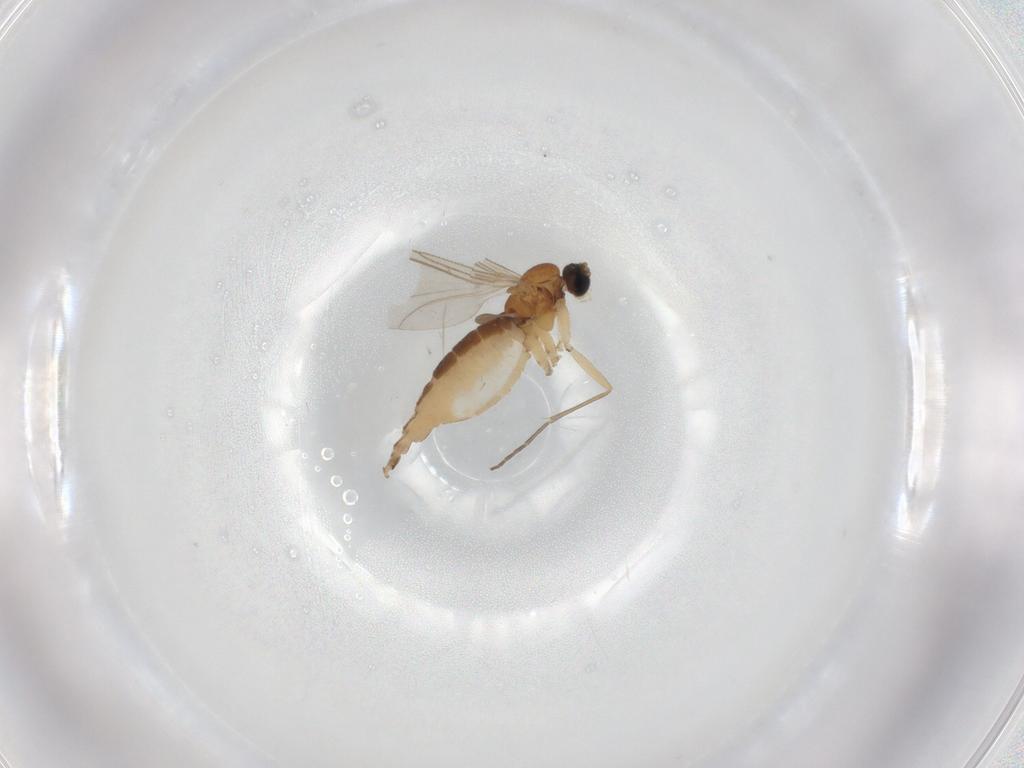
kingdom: Animalia
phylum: Arthropoda
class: Insecta
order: Diptera
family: Sciaridae
